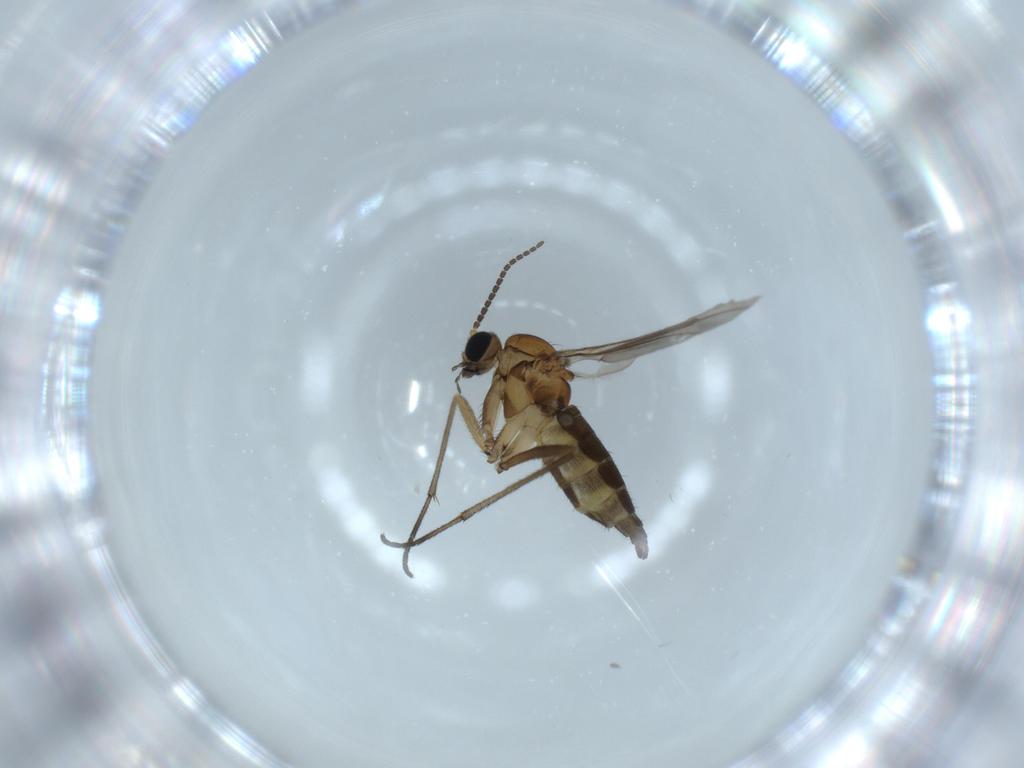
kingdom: Animalia
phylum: Arthropoda
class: Insecta
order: Diptera
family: Sciaridae
